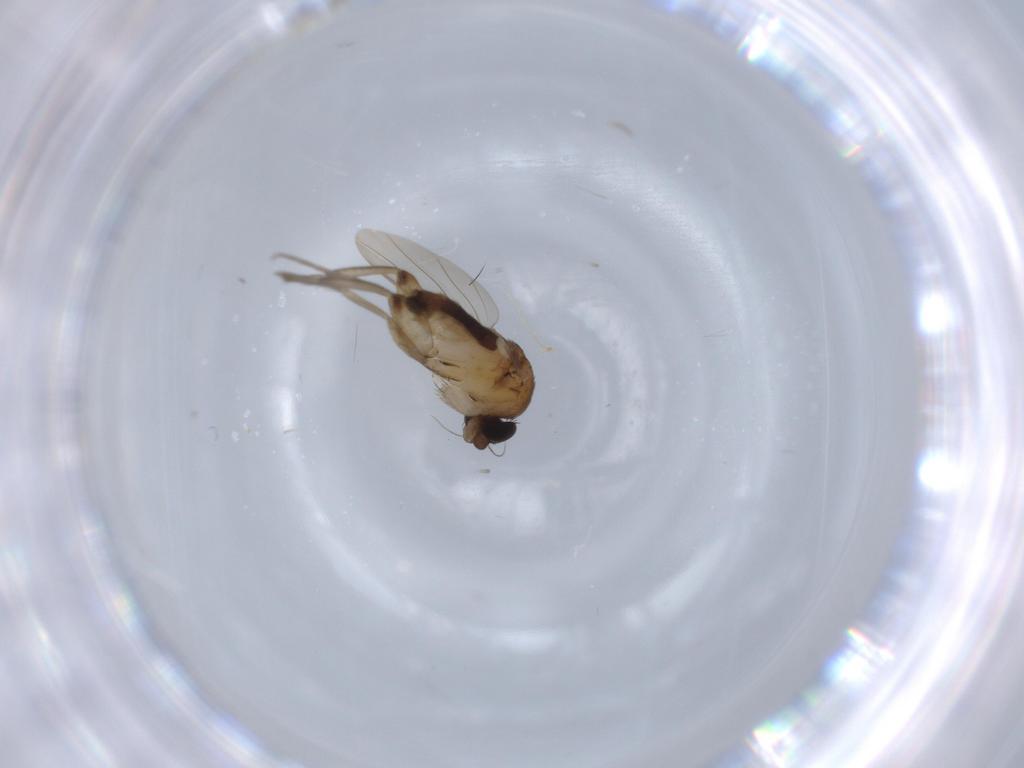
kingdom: Animalia
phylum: Arthropoda
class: Insecta
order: Diptera
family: Phoridae
